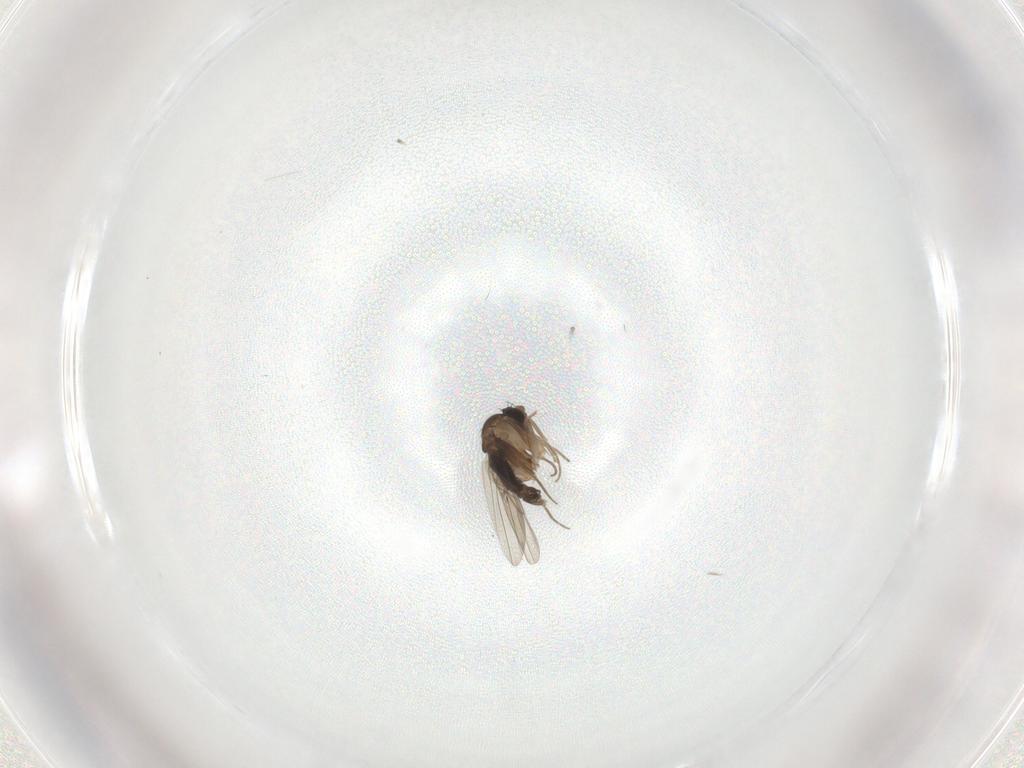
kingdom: Animalia
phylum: Arthropoda
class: Insecta
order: Diptera
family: Phoridae
